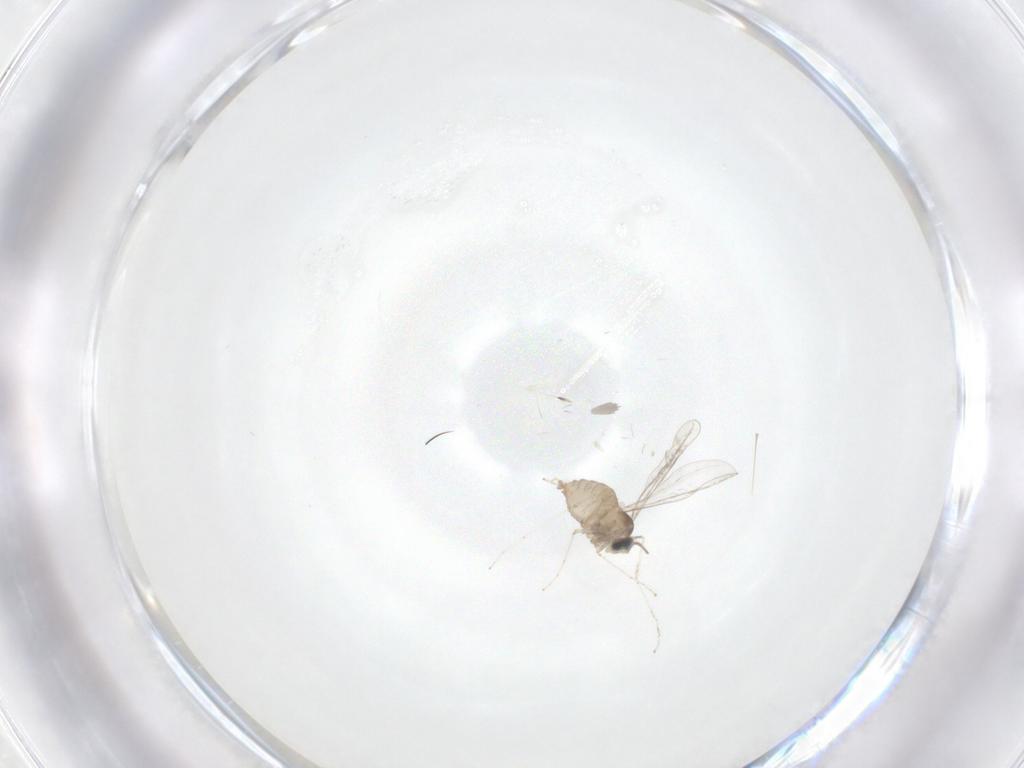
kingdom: Animalia
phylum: Arthropoda
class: Insecta
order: Diptera
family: Cecidomyiidae
